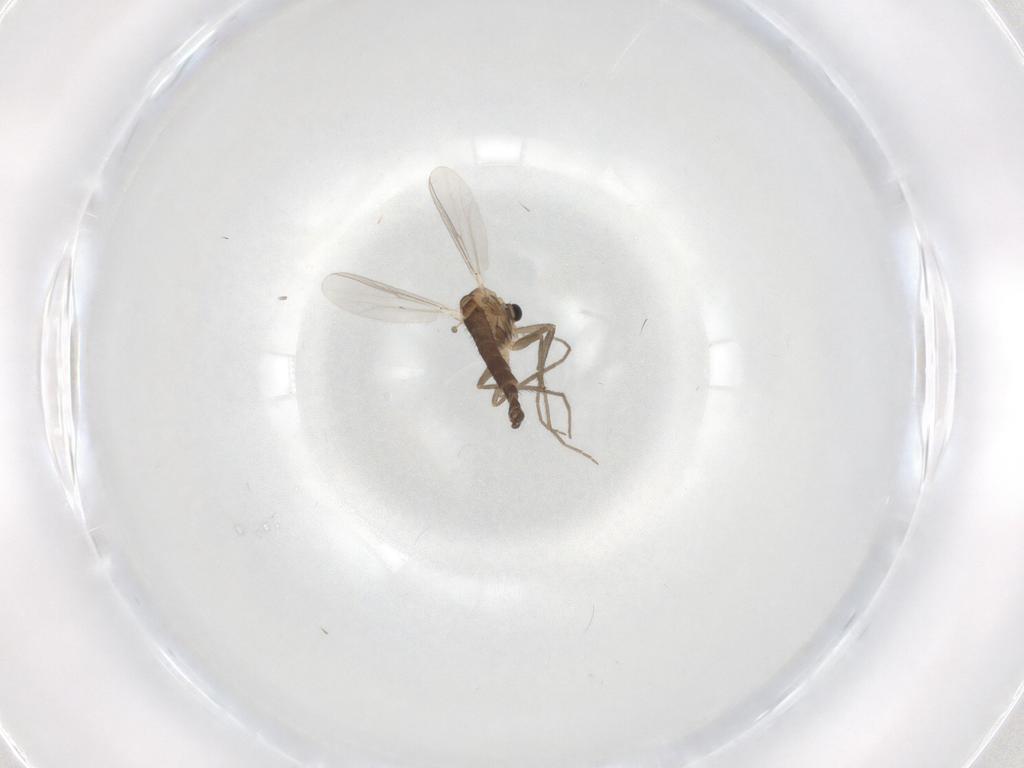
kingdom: Animalia
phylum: Arthropoda
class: Insecta
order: Diptera
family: Chironomidae
